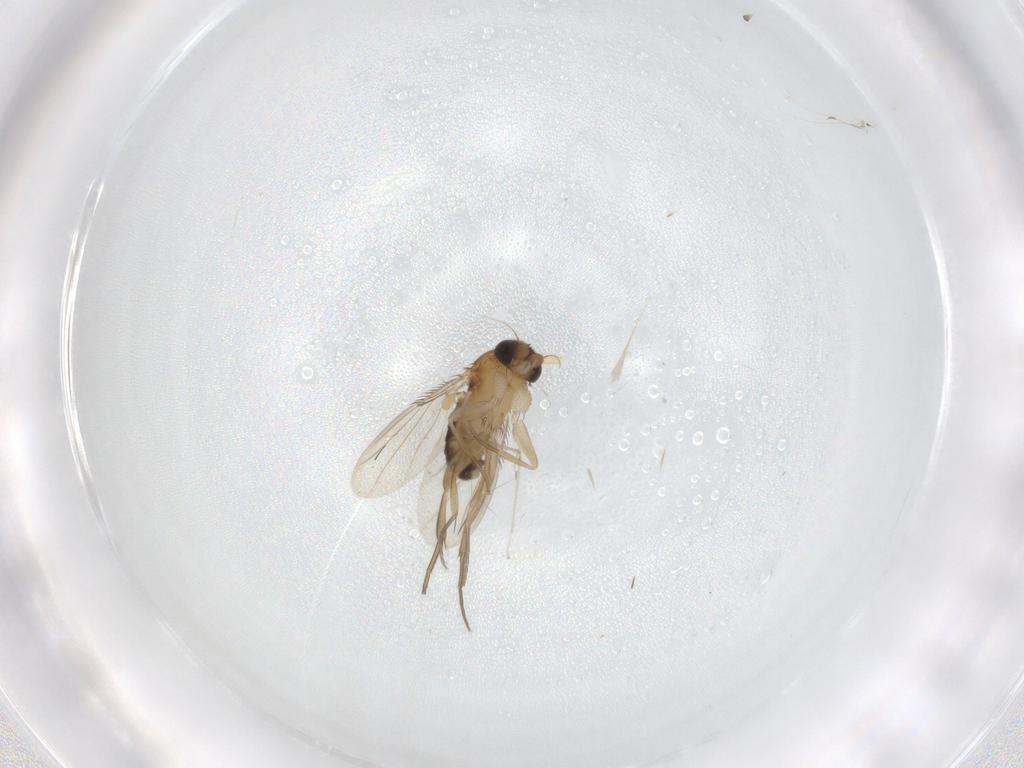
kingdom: Animalia
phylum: Arthropoda
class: Insecta
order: Diptera
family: Phoridae
